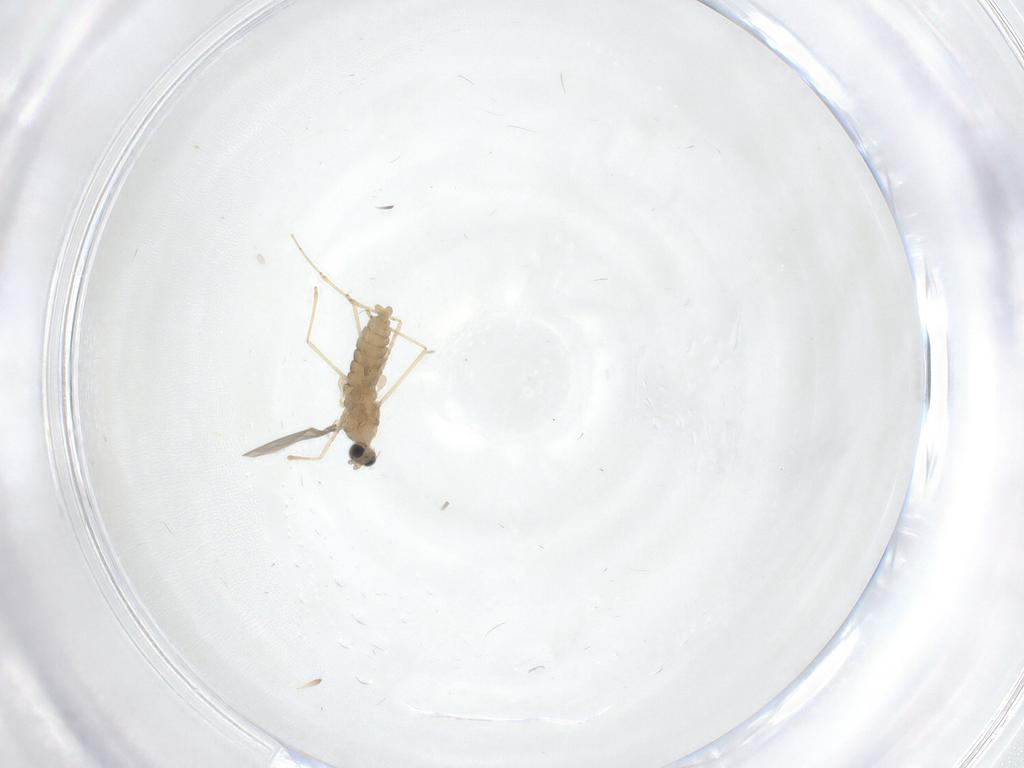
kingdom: Animalia
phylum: Arthropoda
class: Insecta
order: Diptera
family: Cecidomyiidae
